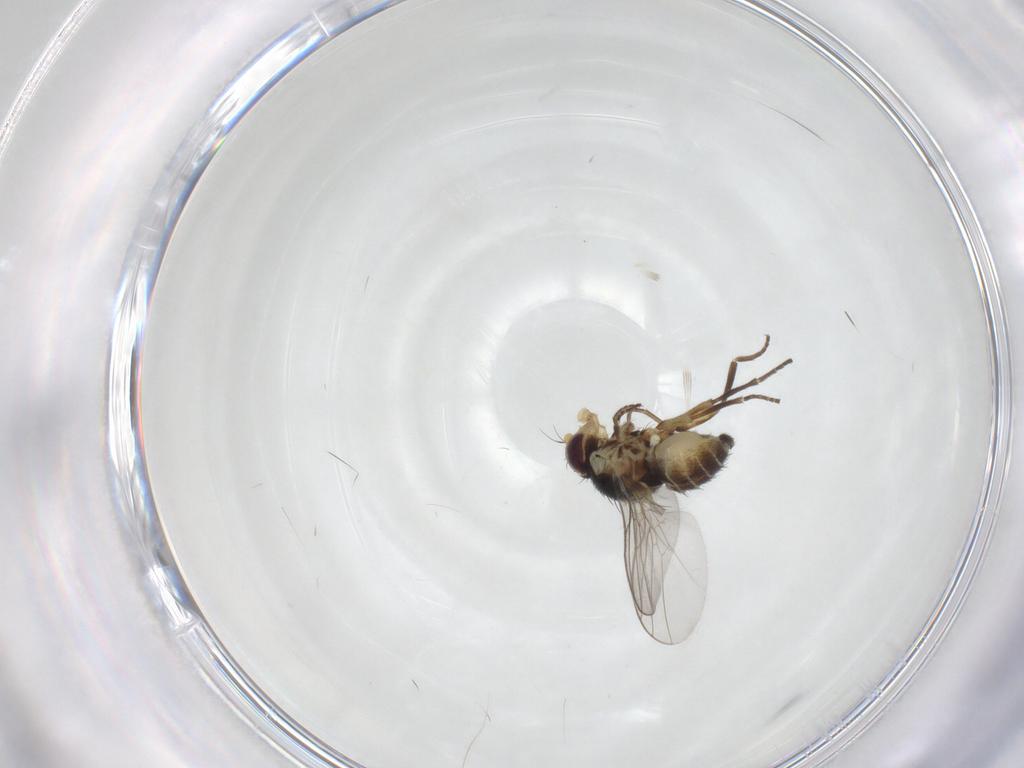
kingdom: Animalia
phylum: Arthropoda
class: Insecta
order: Diptera
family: Agromyzidae
